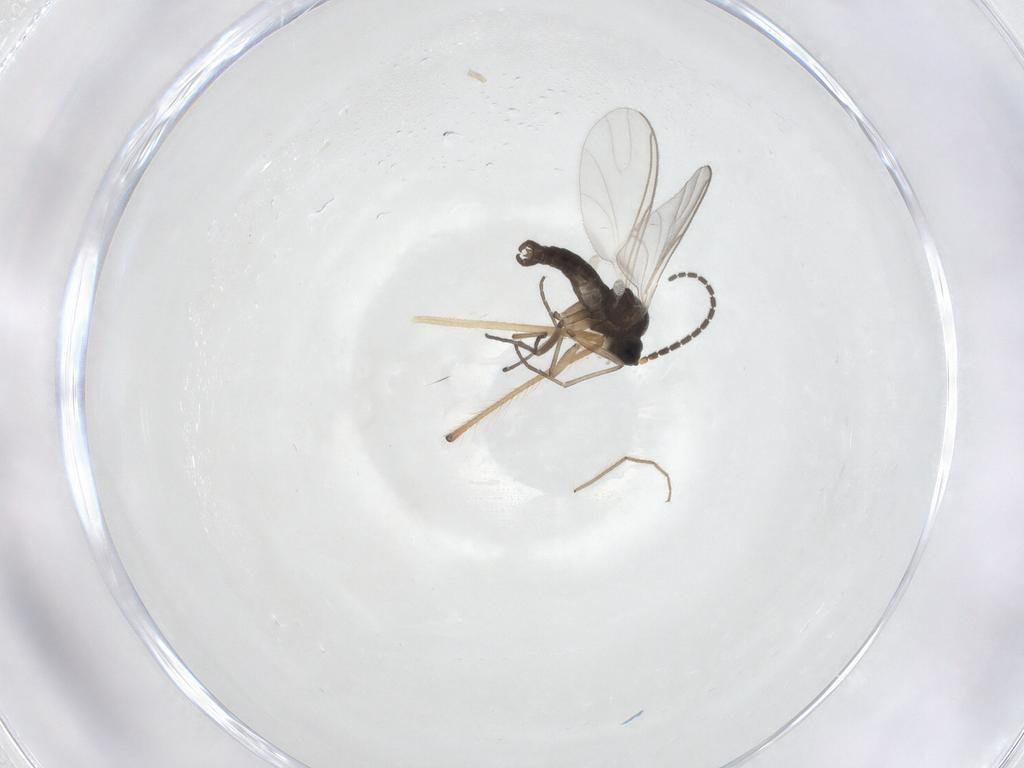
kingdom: Animalia
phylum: Arthropoda
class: Insecta
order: Diptera
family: Sciaridae
